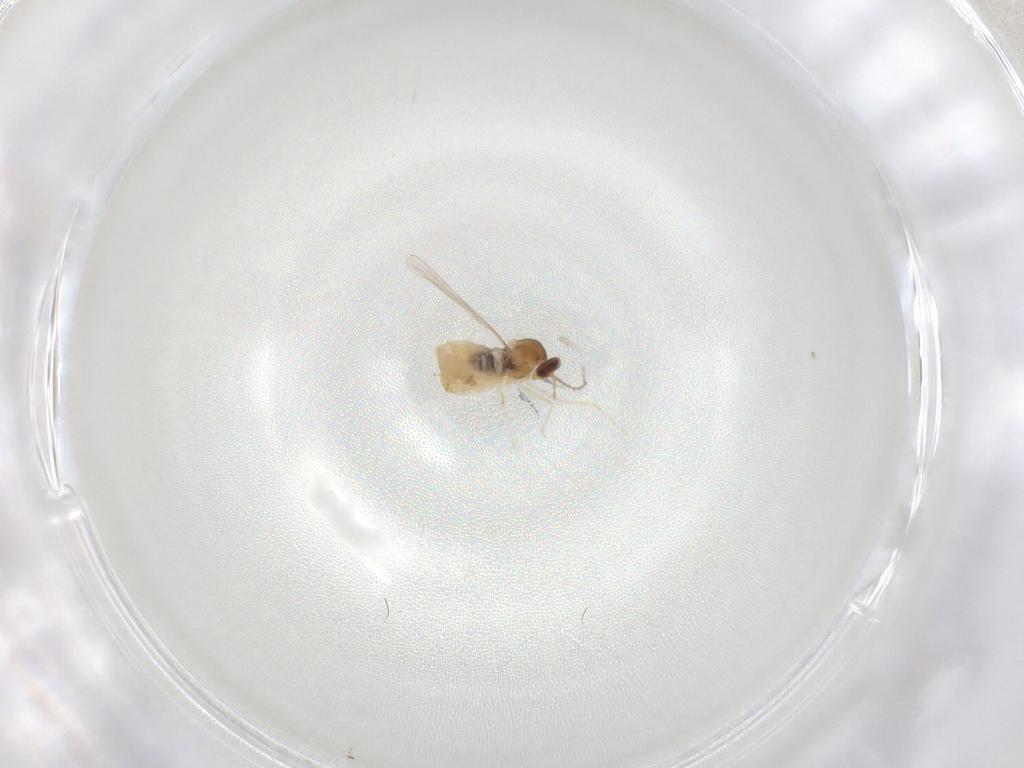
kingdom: Animalia
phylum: Arthropoda
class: Insecta
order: Diptera
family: Cecidomyiidae
